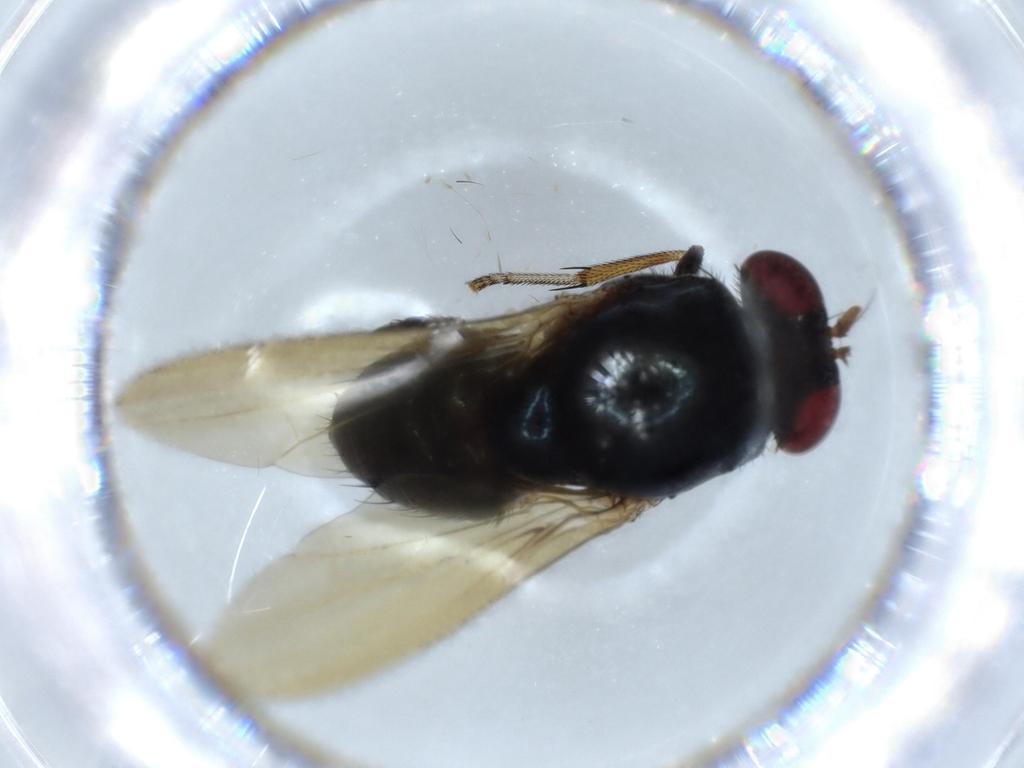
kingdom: Animalia
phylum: Arthropoda
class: Insecta
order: Diptera
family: Lauxaniidae
